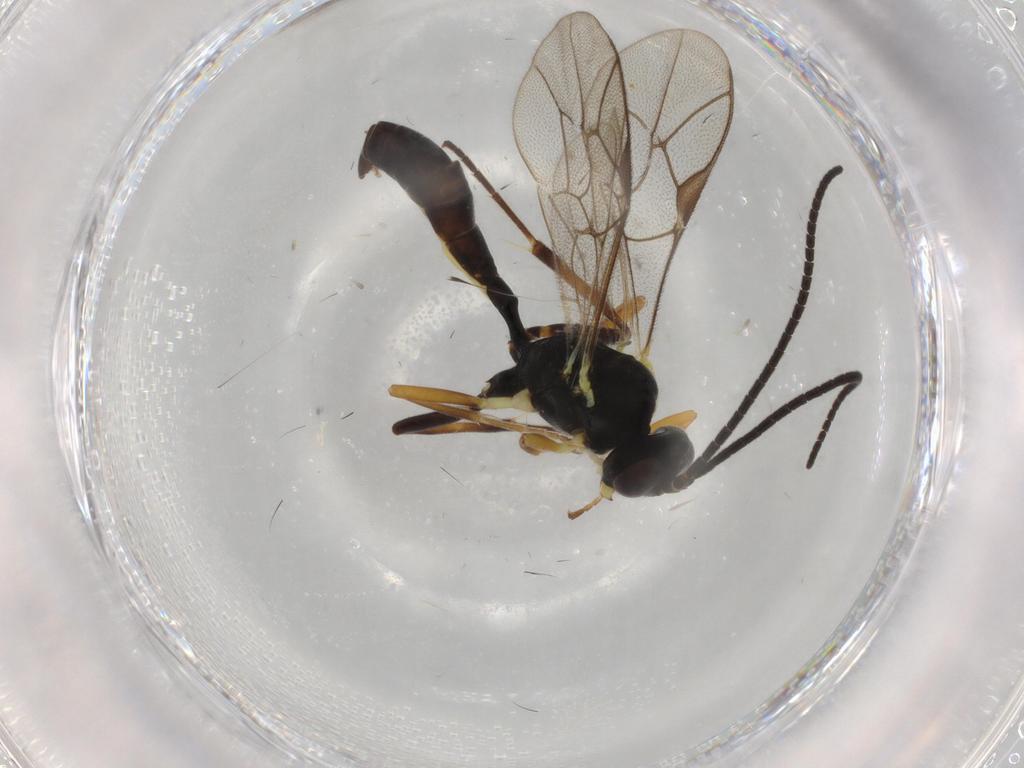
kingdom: Animalia
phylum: Arthropoda
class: Insecta
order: Hymenoptera
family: Ichneumonidae
